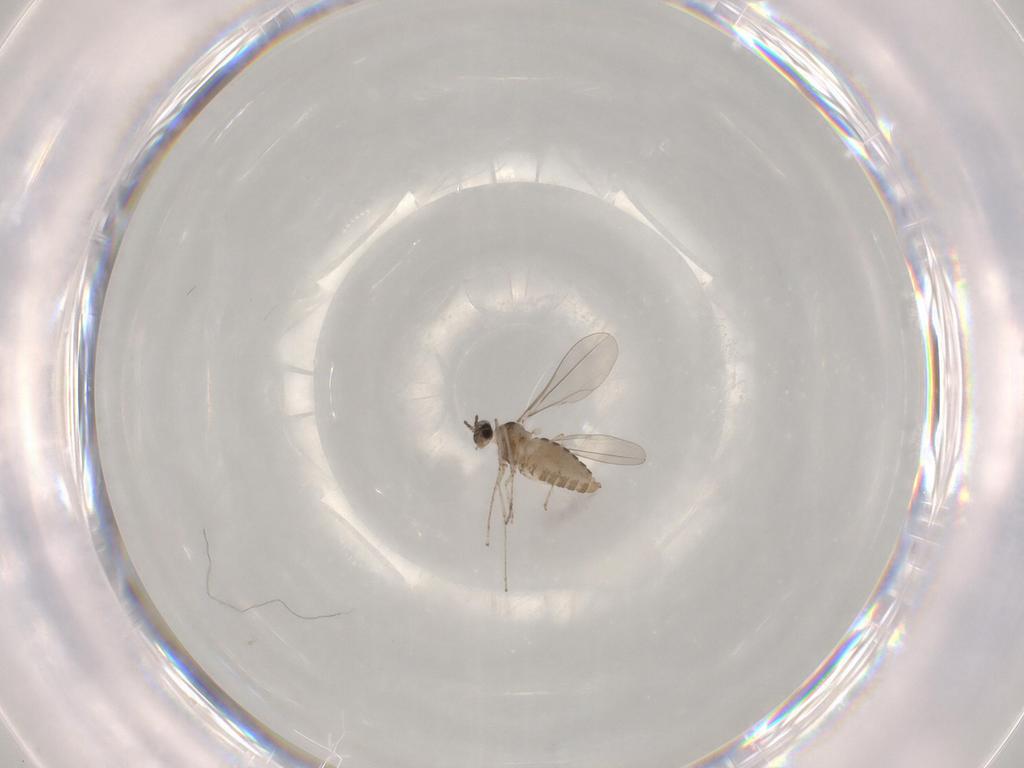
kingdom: Animalia
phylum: Arthropoda
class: Insecta
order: Diptera
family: Cecidomyiidae
